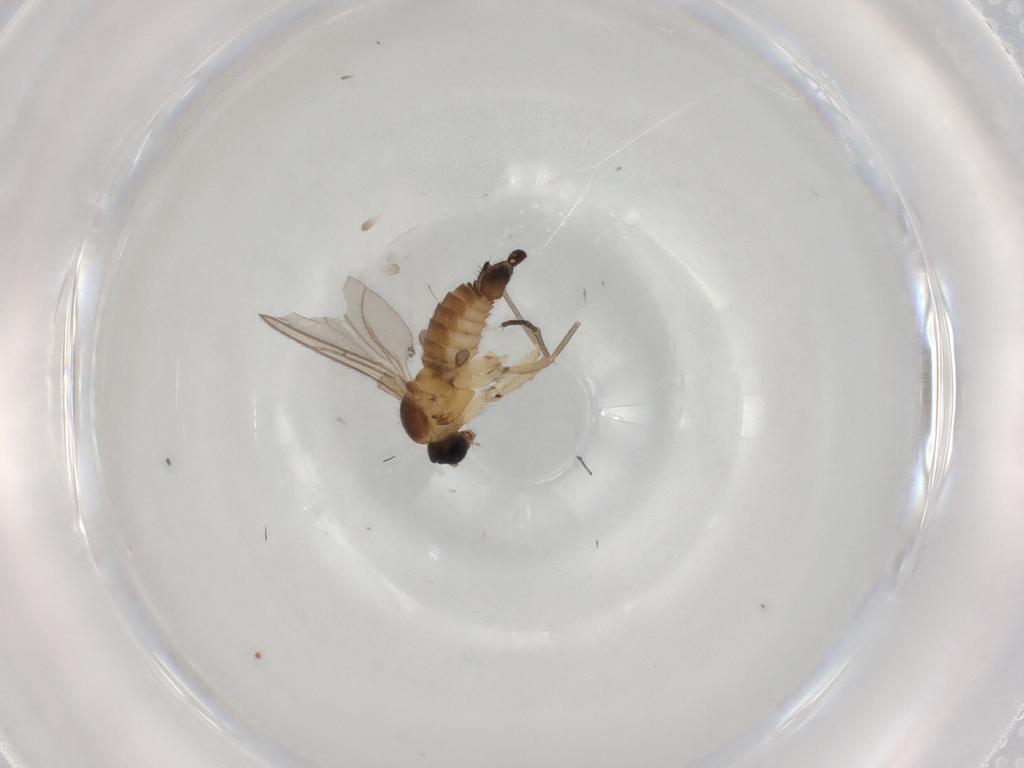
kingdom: Animalia
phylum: Arthropoda
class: Insecta
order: Diptera
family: Sciaridae
